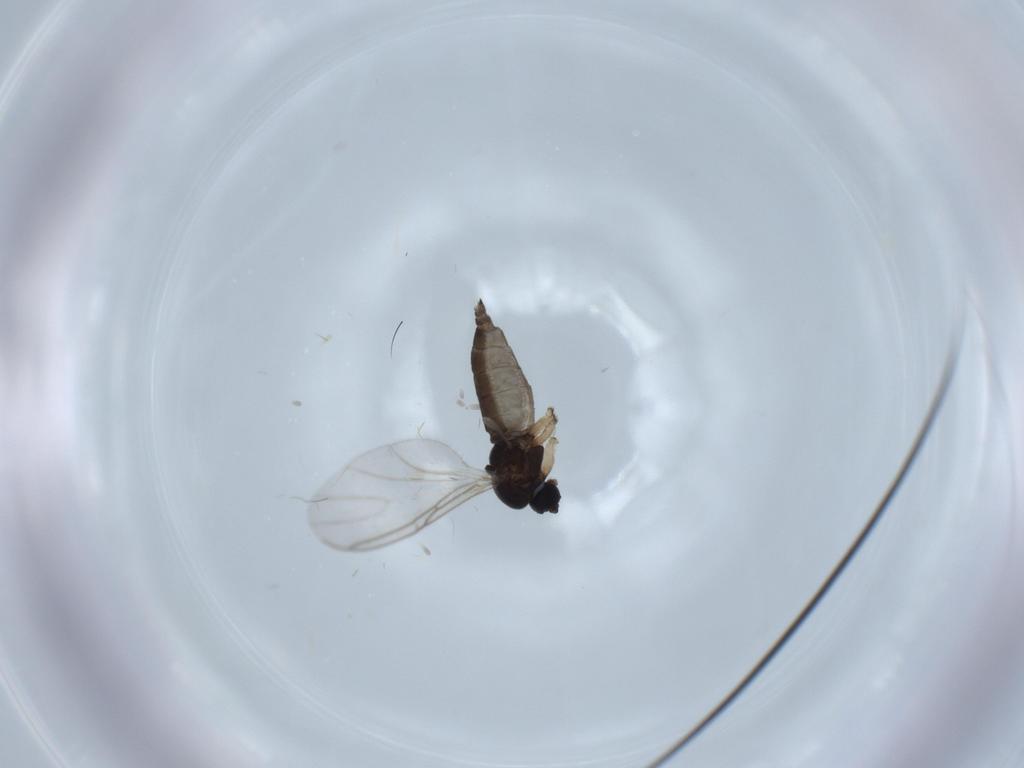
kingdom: Animalia
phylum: Arthropoda
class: Insecta
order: Diptera
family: Sciaridae
